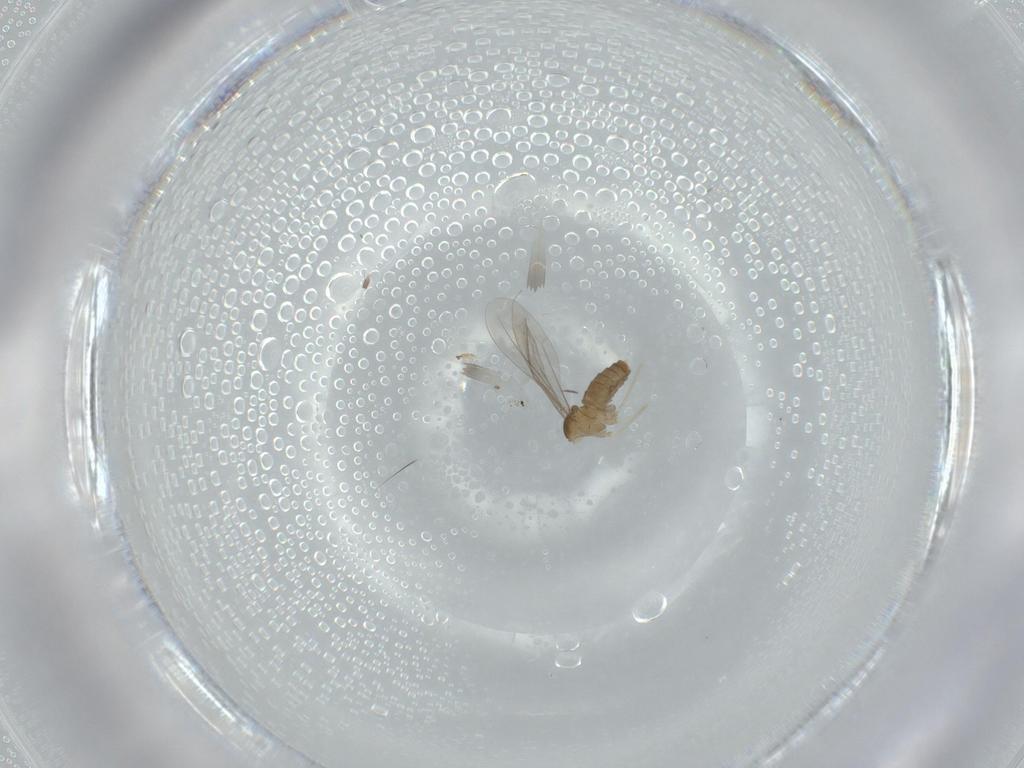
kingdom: Animalia
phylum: Arthropoda
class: Insecta
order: Diptera
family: Cecidomyiidae
